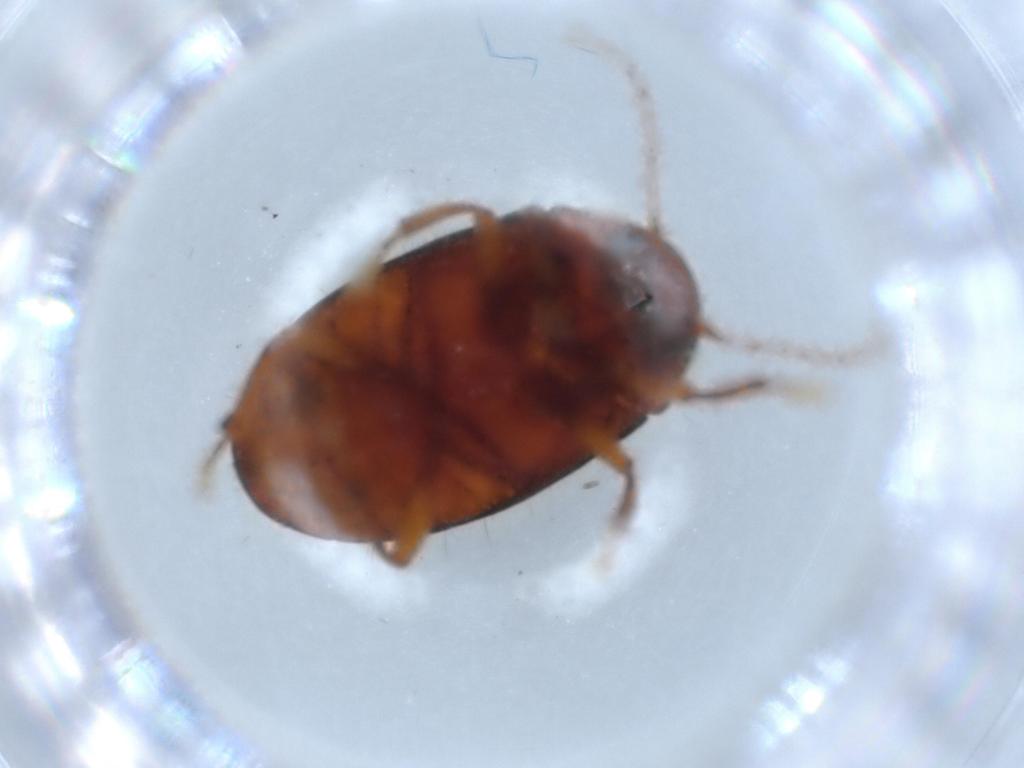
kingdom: Animalia
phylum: Arthropoda
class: Insecta
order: Coleoptera
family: Artematopodidae
